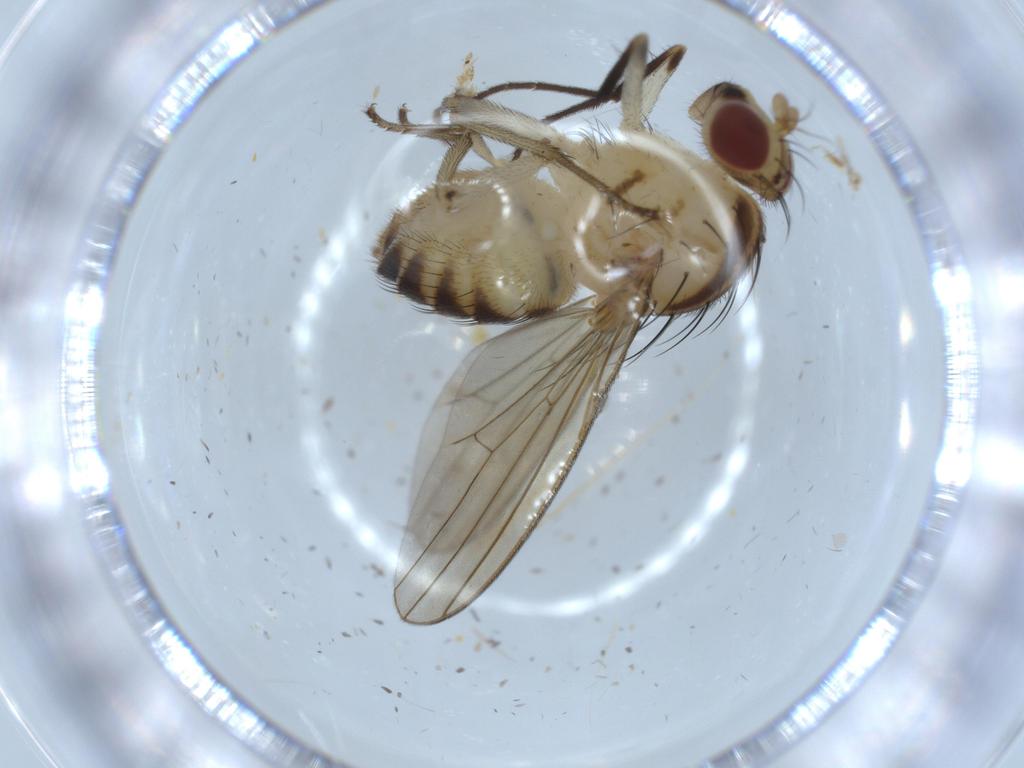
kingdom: Animalia
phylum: Arthropoda
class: Insecta
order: Diptera
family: Lauxaniidae
